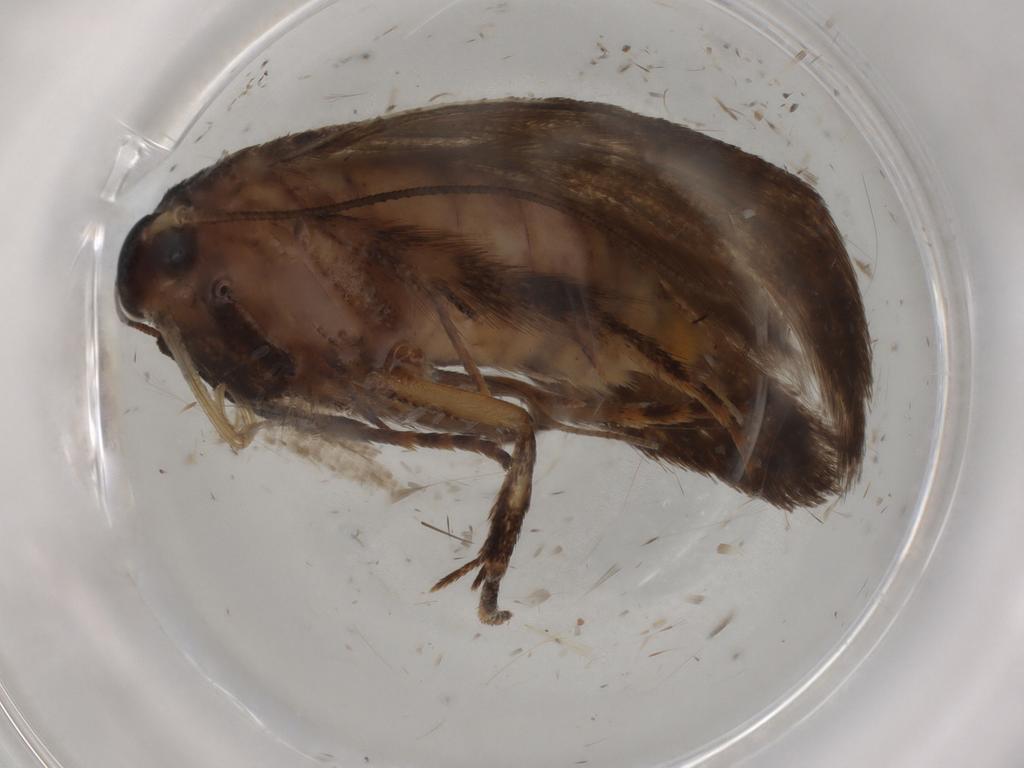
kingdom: Animalia
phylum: Arthropoda
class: Insecta
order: Lepidoptera
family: Blastobasidae
